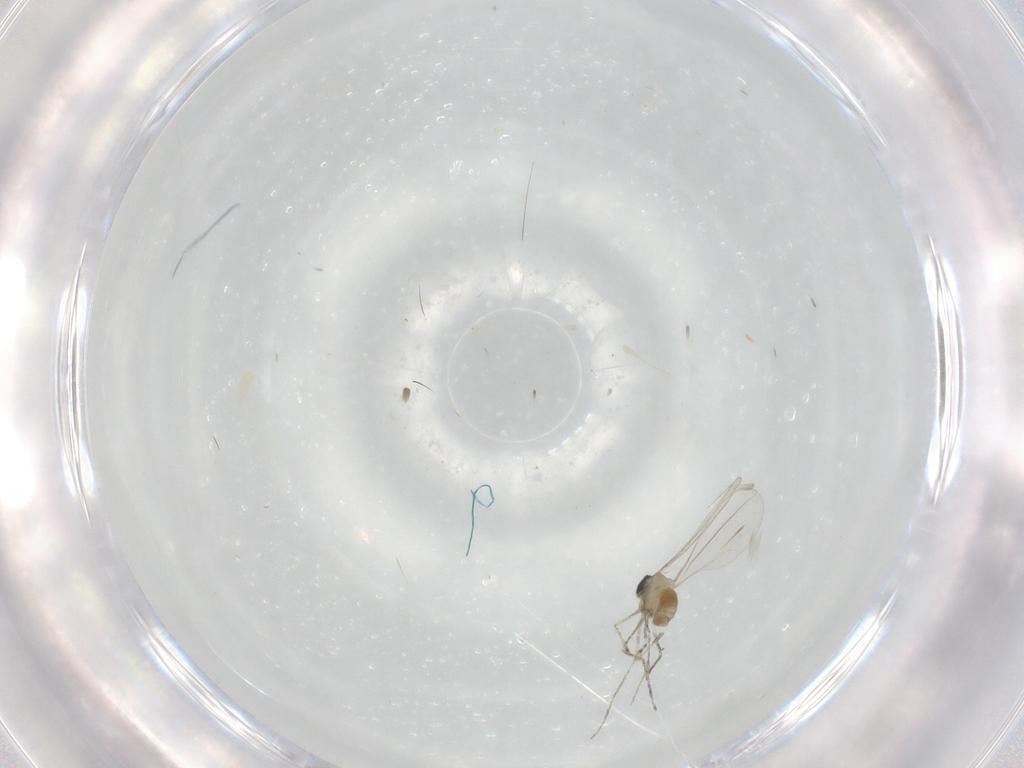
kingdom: Animalia
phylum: Arthropoda
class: Insecta
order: Diptera
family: Cecidomyiidae
